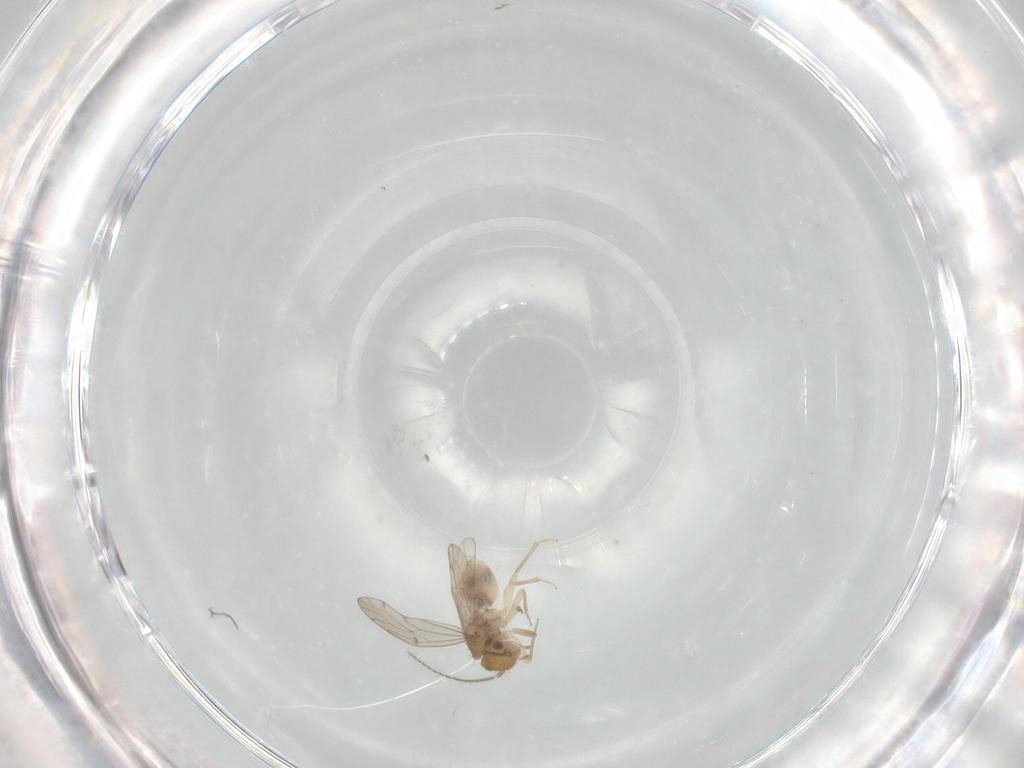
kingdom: Animalia
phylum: Arthropoda
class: Insecta
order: Psocodea
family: Ectopsocidae
